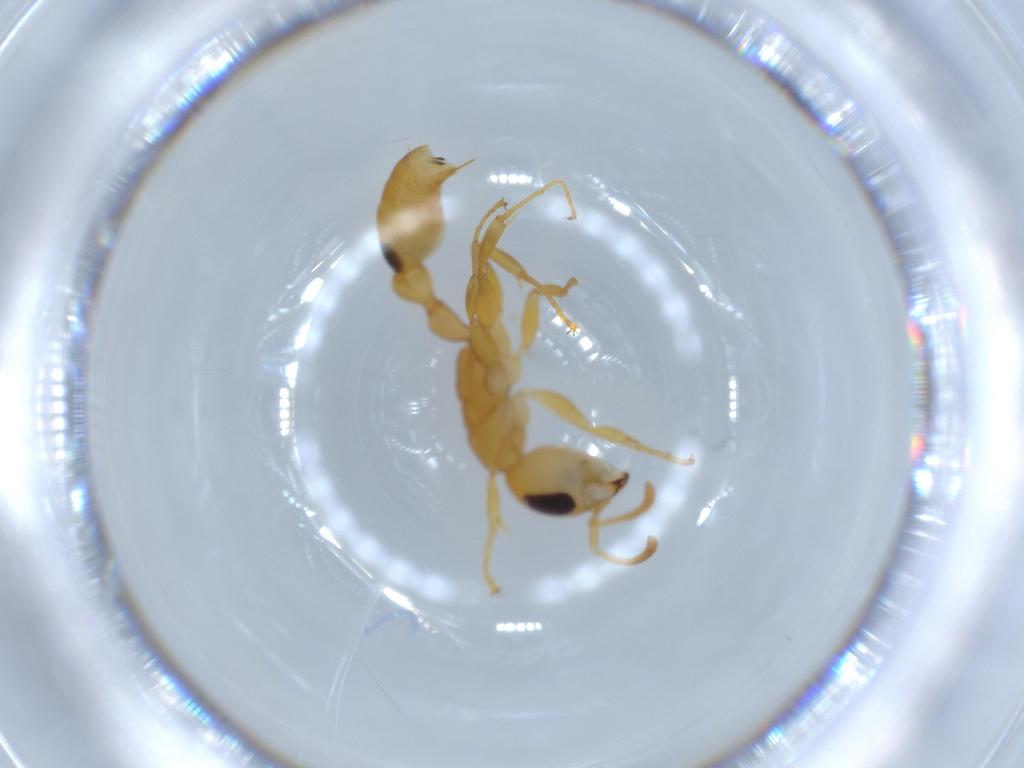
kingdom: Animalia
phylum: Arthropoda
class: Insecta
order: Hymenoptera
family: Formicidae
